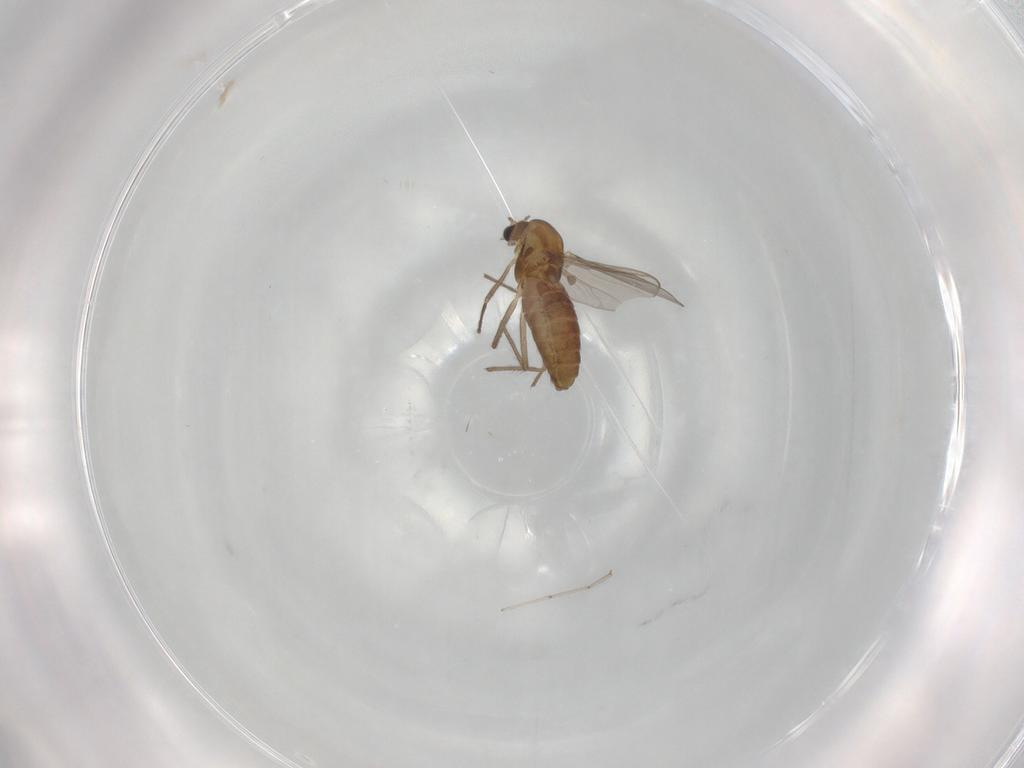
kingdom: Animalia
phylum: Arthropoda
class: Insecta
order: Diptera
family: Chironomidae
